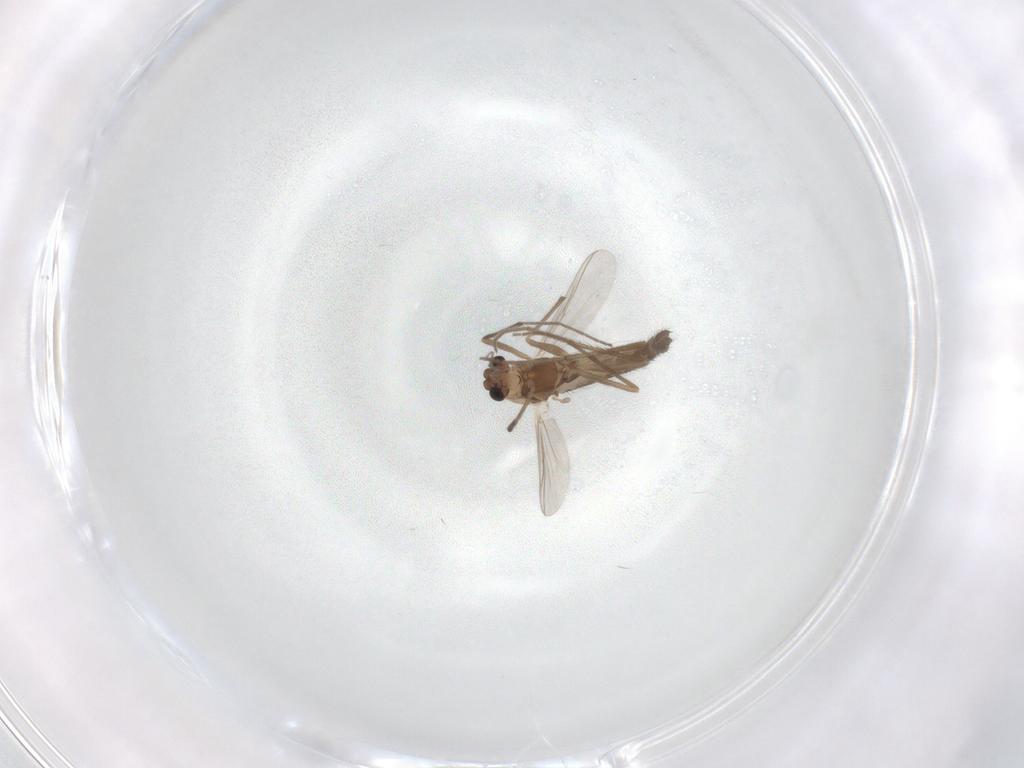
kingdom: Animalia
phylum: Arthropoda
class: Insecta
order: Diptera
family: Chironomidae
